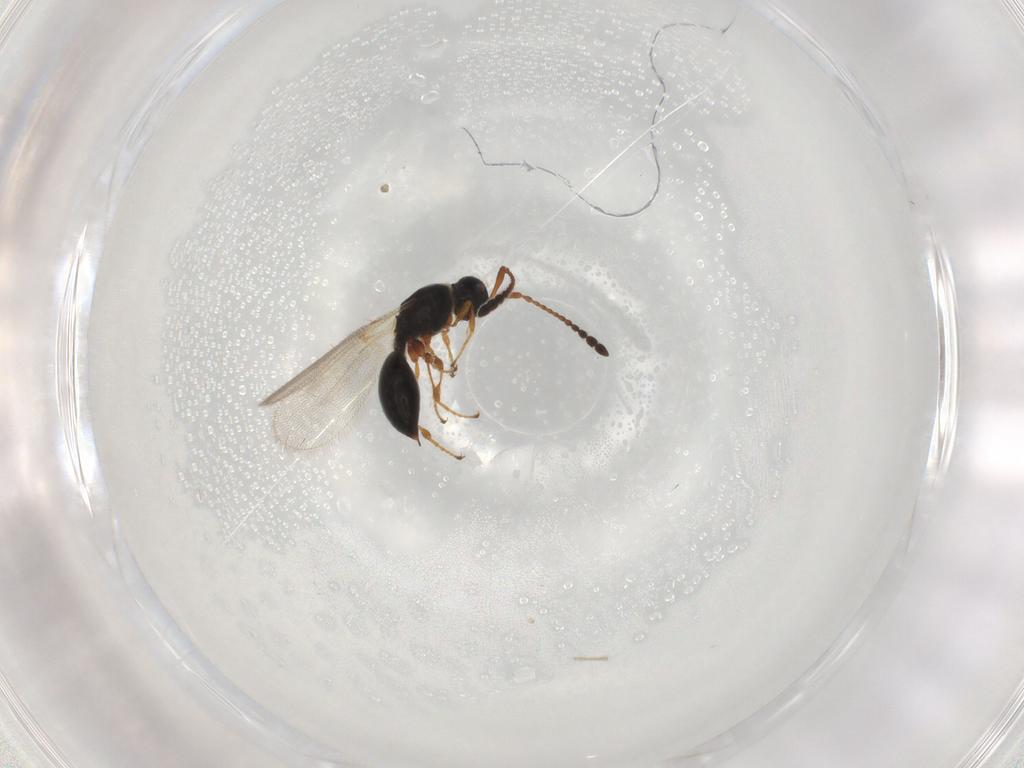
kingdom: Animalia
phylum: Arthropoda
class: Insecta
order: Hymenoptera
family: Diapriidae
